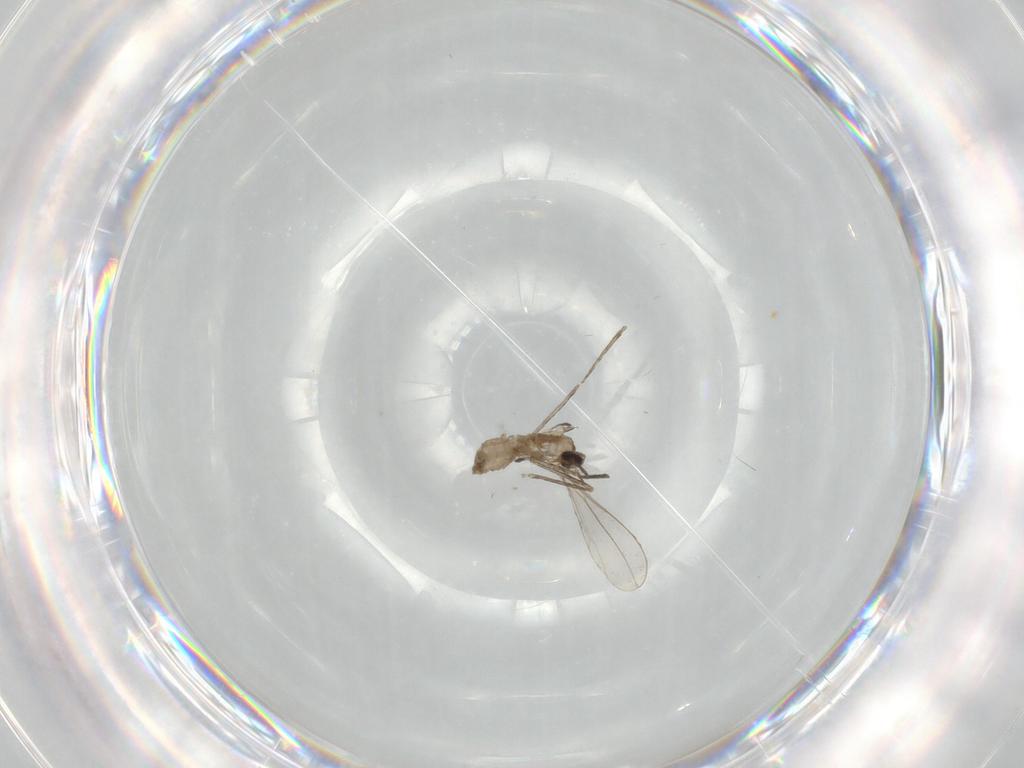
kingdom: Animalia
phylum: Arthropoda
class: Insecta
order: Diptera
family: Cecidomyiidae
